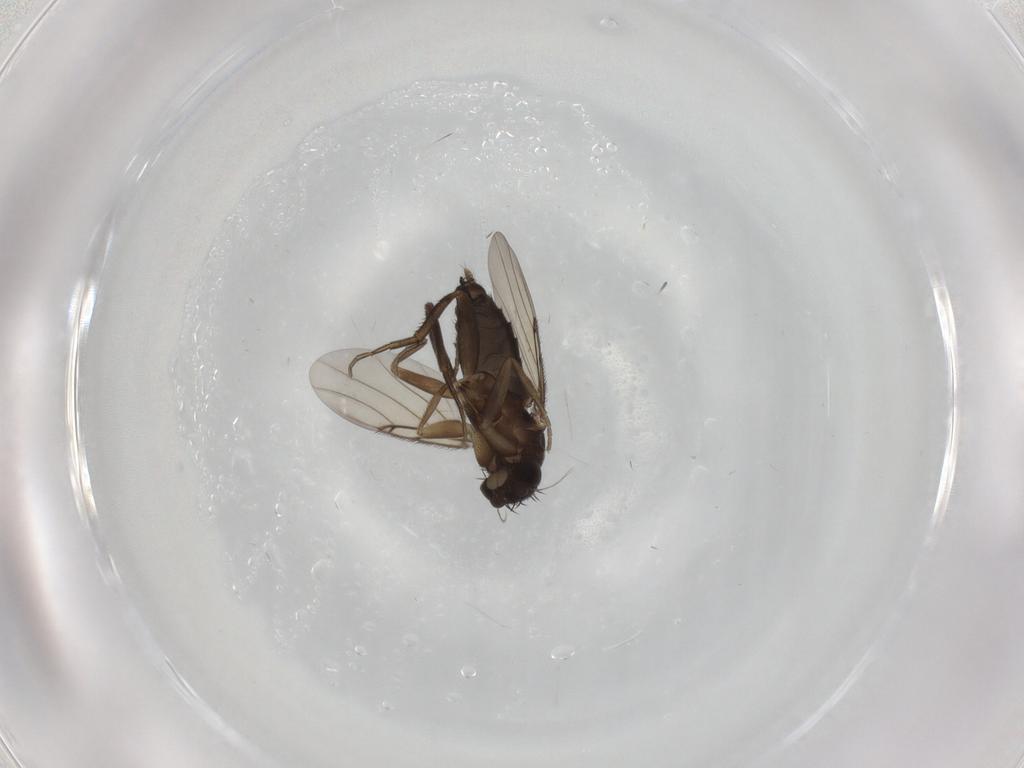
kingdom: Animalia
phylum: Arthropoda
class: Insecta
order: Diptera
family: Phoridae
